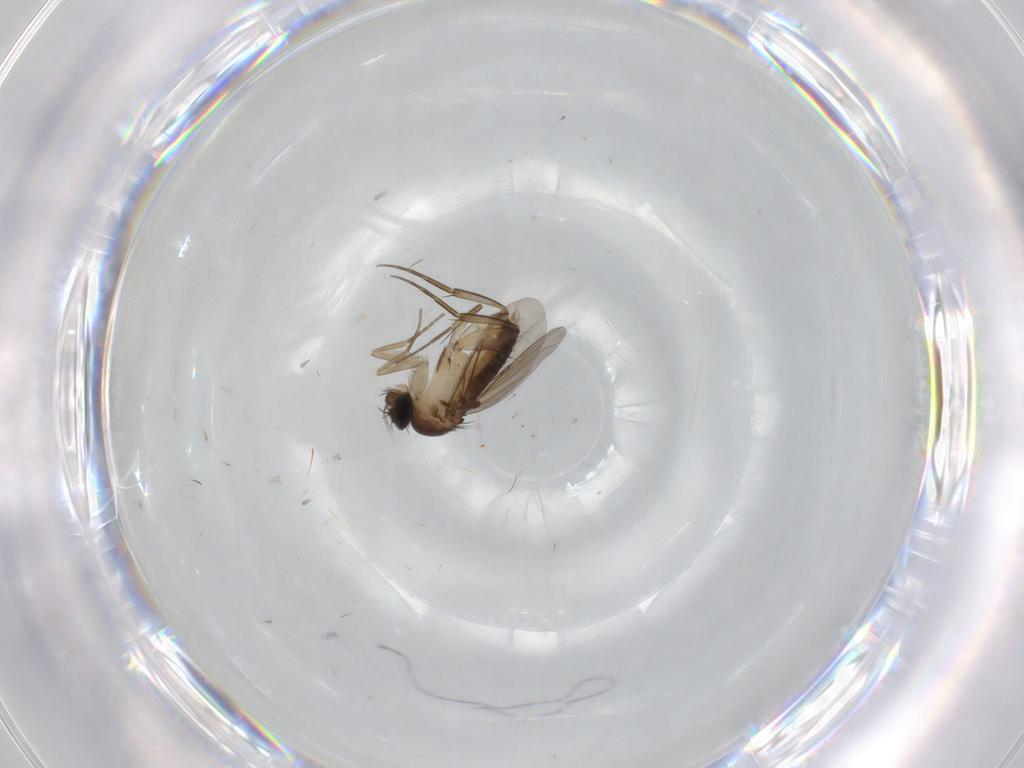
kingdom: Animalia
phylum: Arthropoda
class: Insecta
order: Diptera
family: Phoridae
